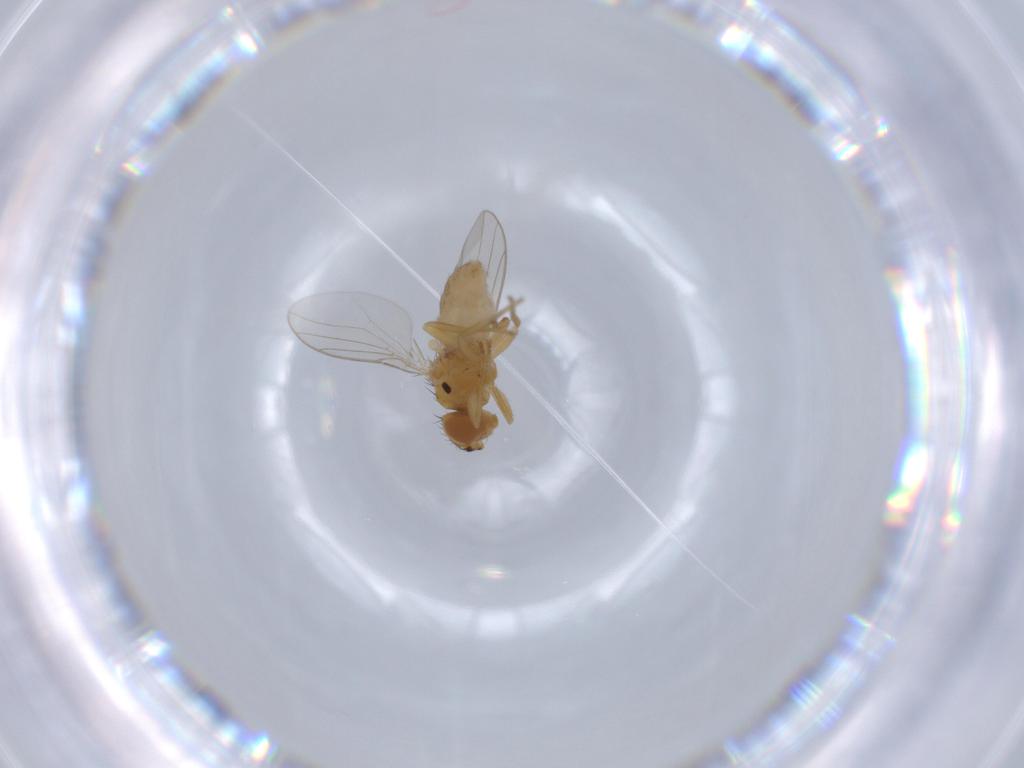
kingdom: Animalia
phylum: Arthropoda
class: Insecta
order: Diptera
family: Chloropidae
